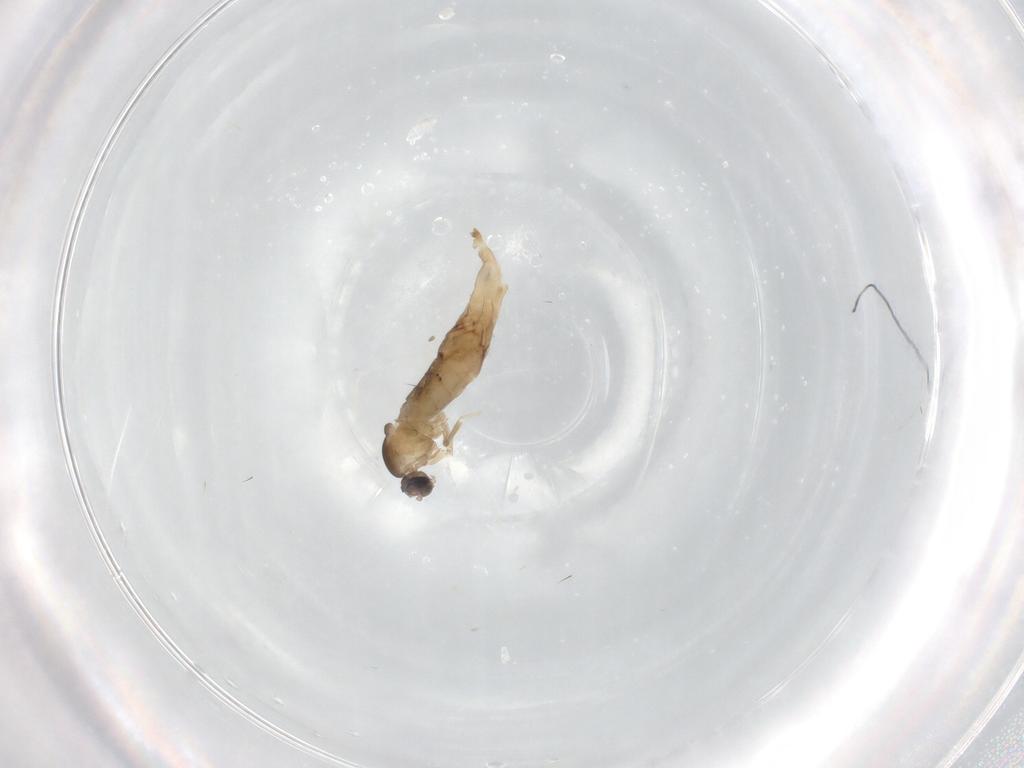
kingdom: Animalia
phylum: Arthropoda
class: Insecta
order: Diptera
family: Cecidomyiidae
